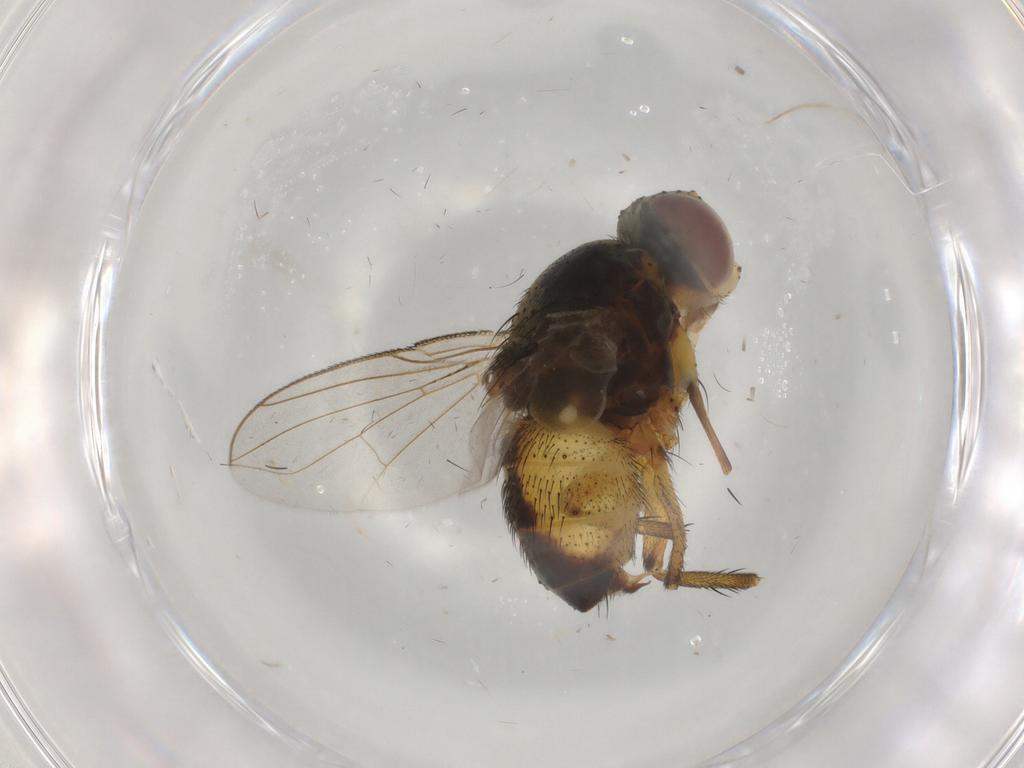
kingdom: Animalia
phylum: Arthropoda
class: Insecta
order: Diptera
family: Tachinidae
